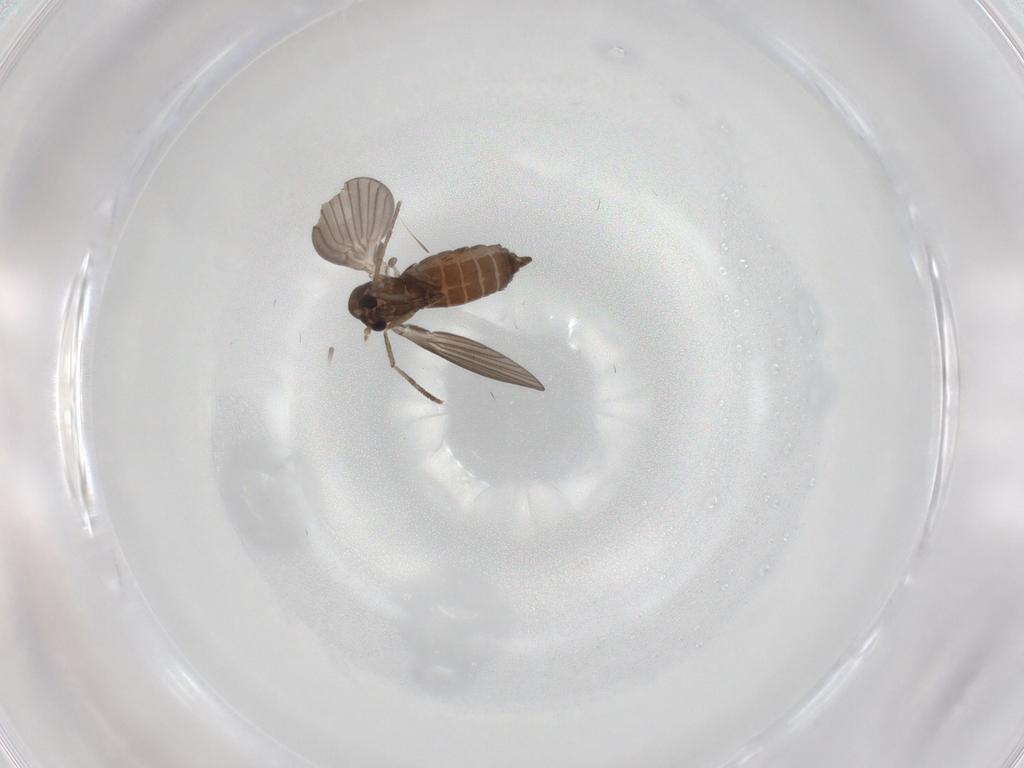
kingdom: Animalia
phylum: Arthropoda
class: Insecta
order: Diptera
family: Psychodidae
